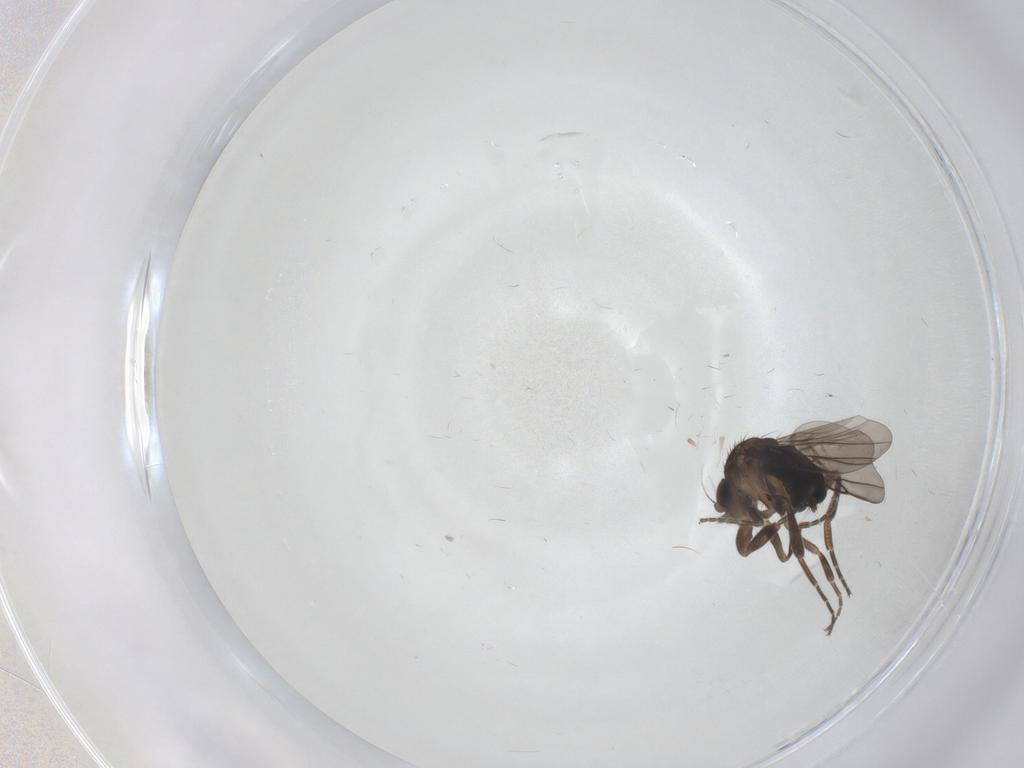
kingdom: Animalia
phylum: Arthropoda
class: Insecta
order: Diptera
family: Phoridae
